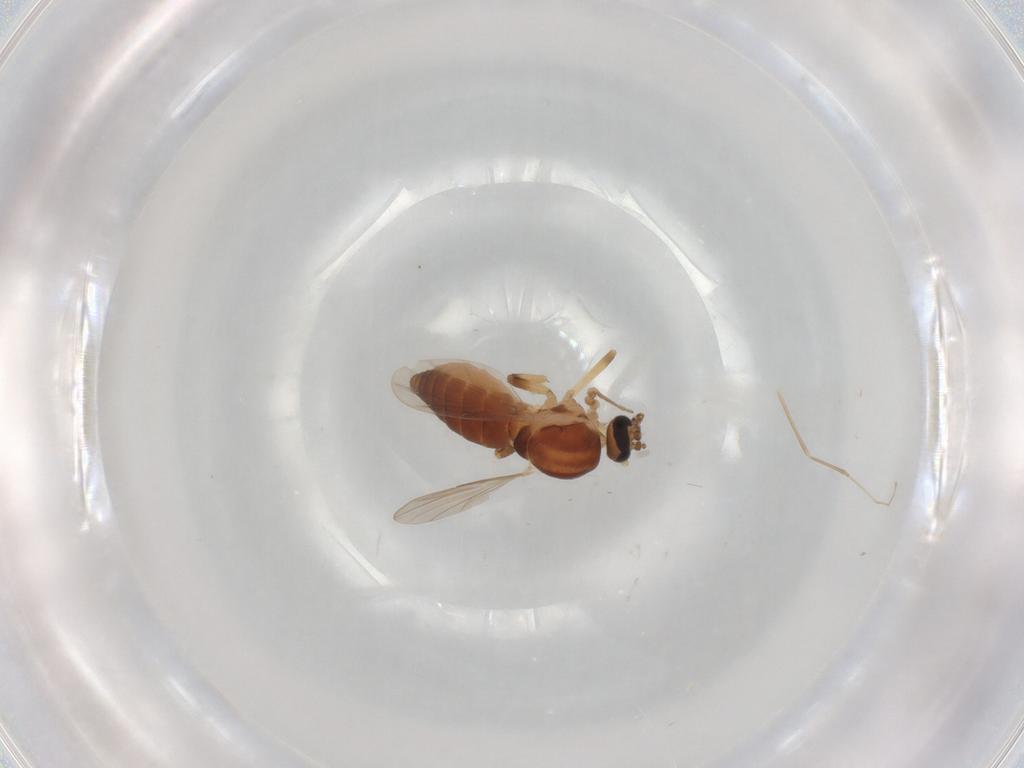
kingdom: Animalia
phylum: Arthropoda
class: Insecta
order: Diptera
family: Ceratopogonidae
